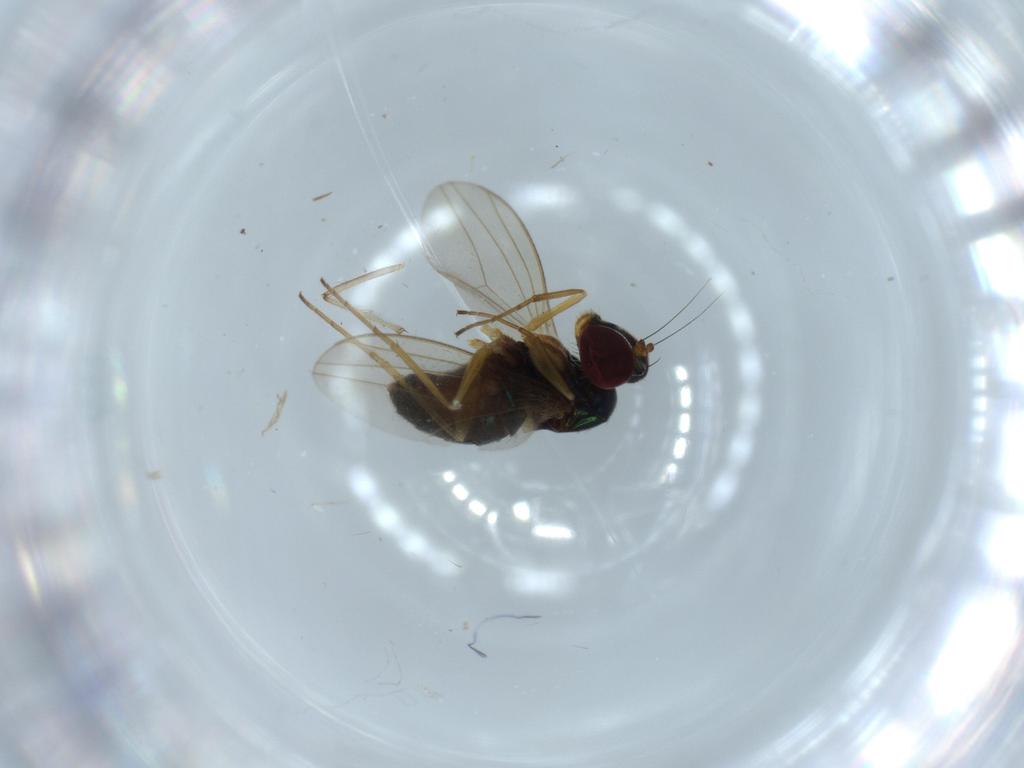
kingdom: Animalia
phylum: Arthropoda
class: Insecta
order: Diptera
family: Dolichopodidae
